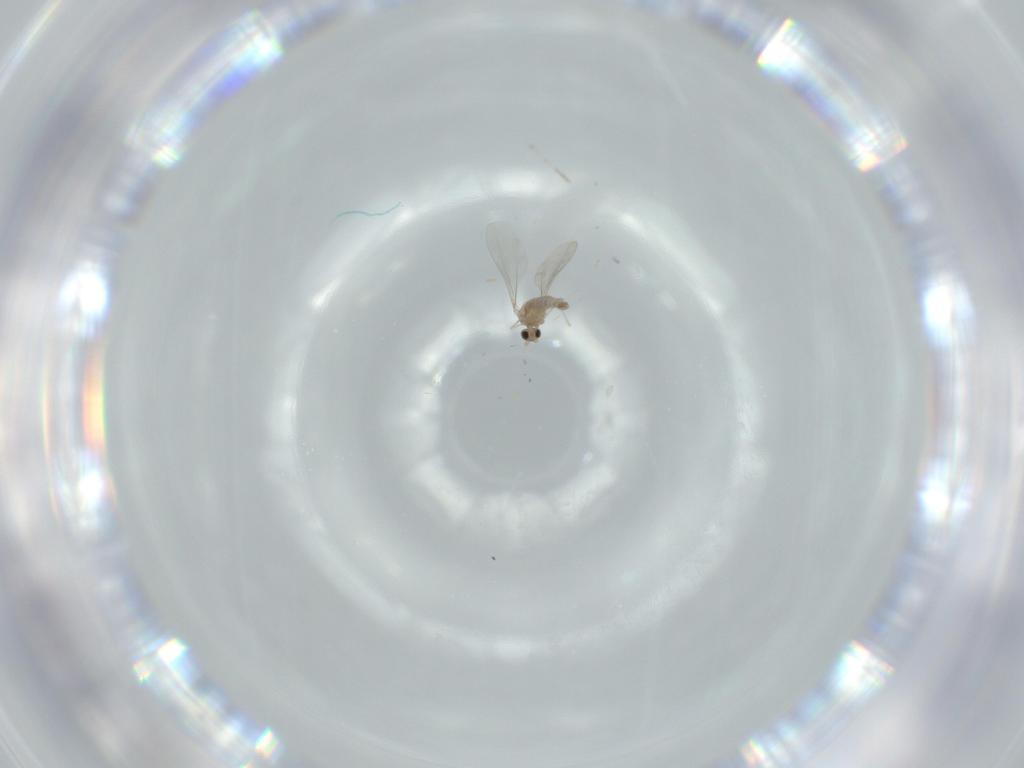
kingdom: Animalia
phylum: Arthropoda
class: Insecta
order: Diptera
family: Cecidomyiidae
